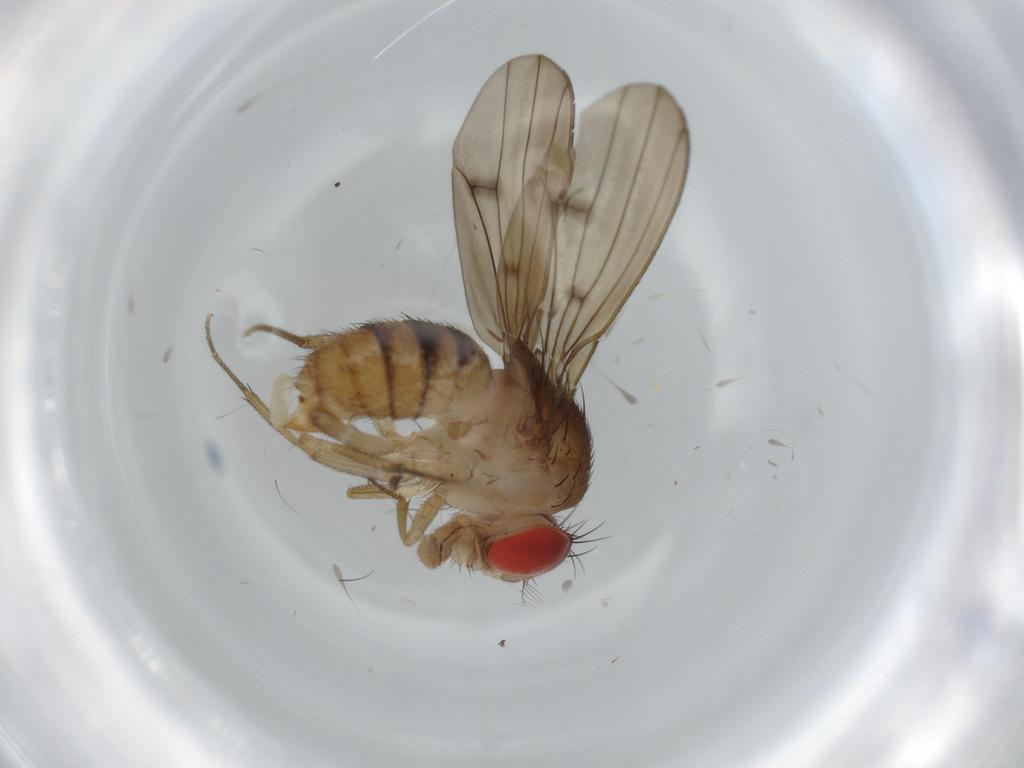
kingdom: Animalia
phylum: Arthropoda
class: Insecta
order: Diptera
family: Drosophilidae
